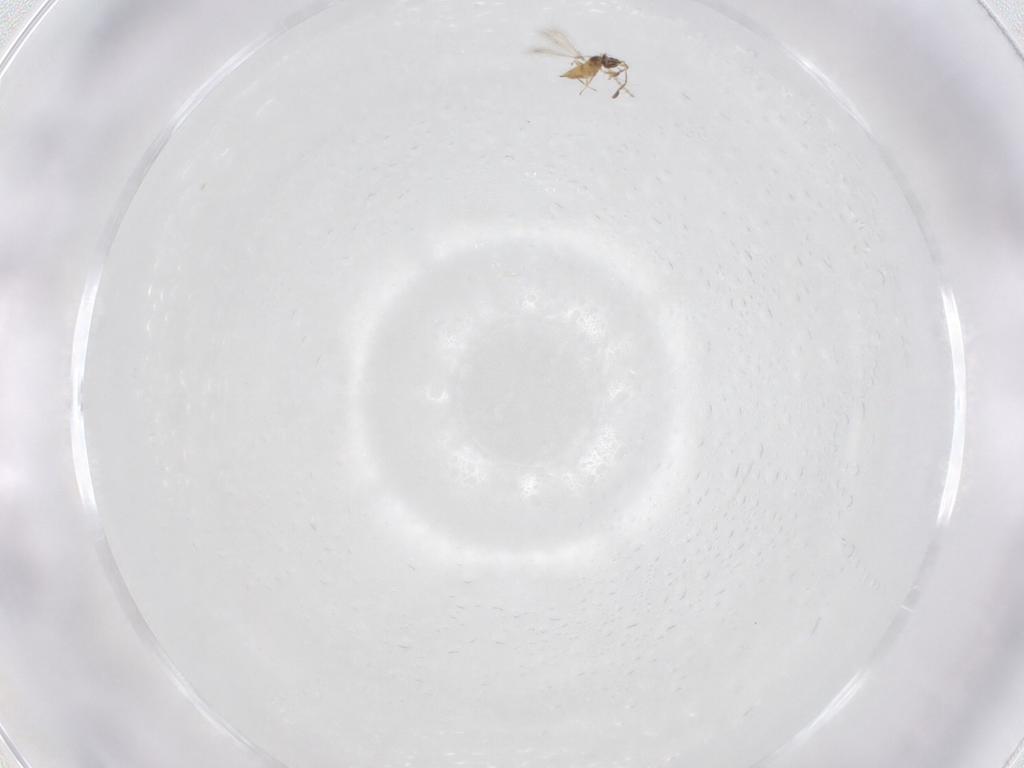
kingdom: Animalia
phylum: Arthropoda
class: Insecta
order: Hymenoptera
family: Mymaridae
